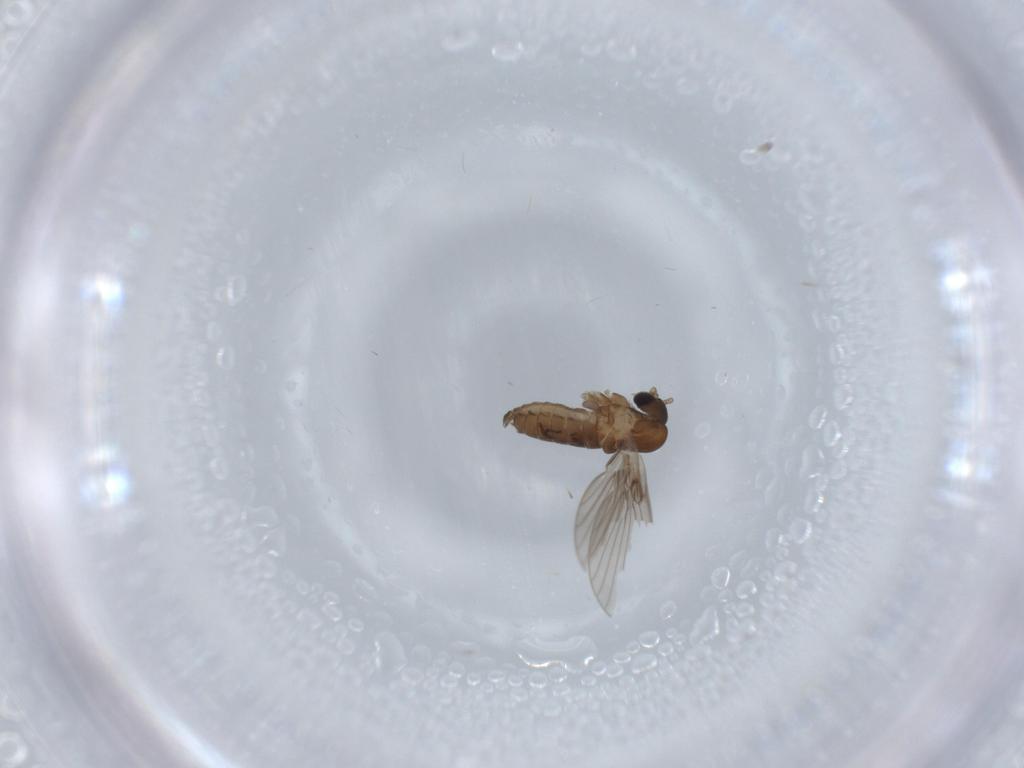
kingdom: Animalia
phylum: Arthropoda
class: Insecta
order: Diptera
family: Psychodidae
